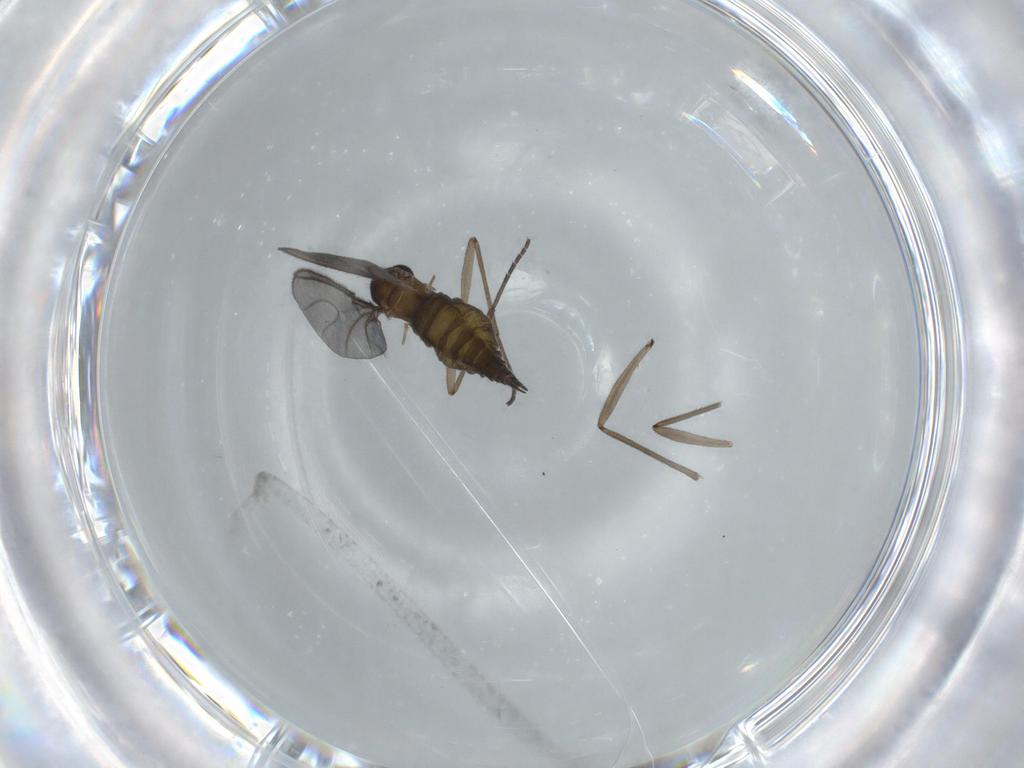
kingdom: Animalia
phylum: Arthropoda
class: Insecta
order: Diptera
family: Sciaridae
